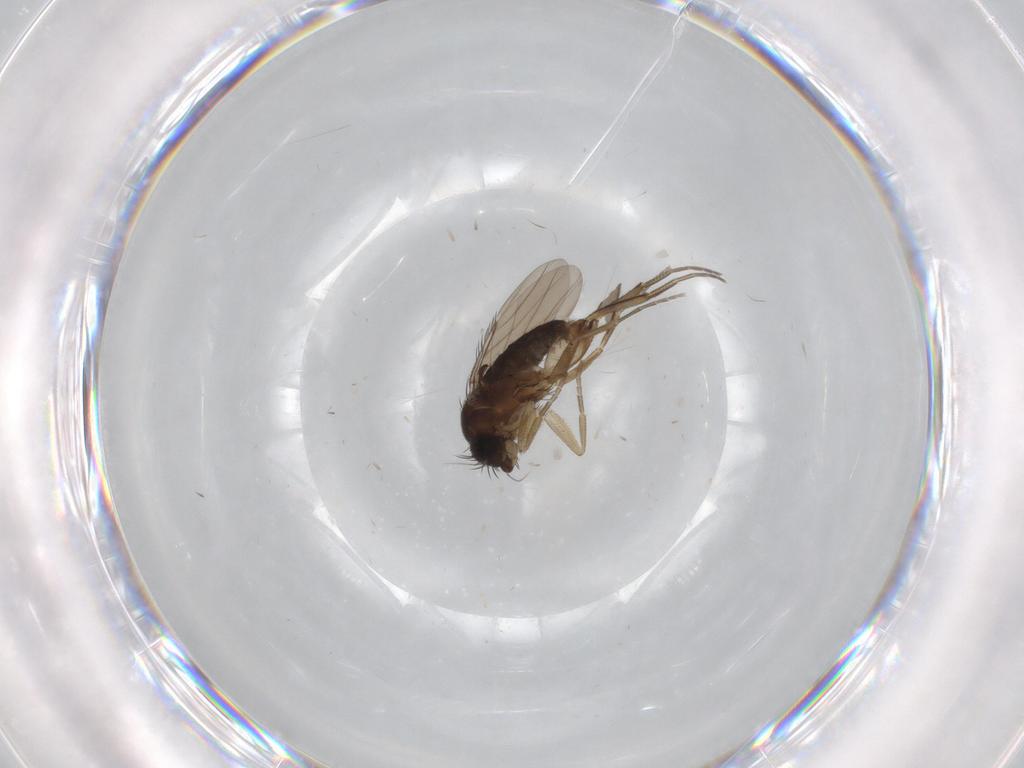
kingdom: Animalia
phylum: Arthropoda
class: Insecta
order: Diptera
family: Phoridae
